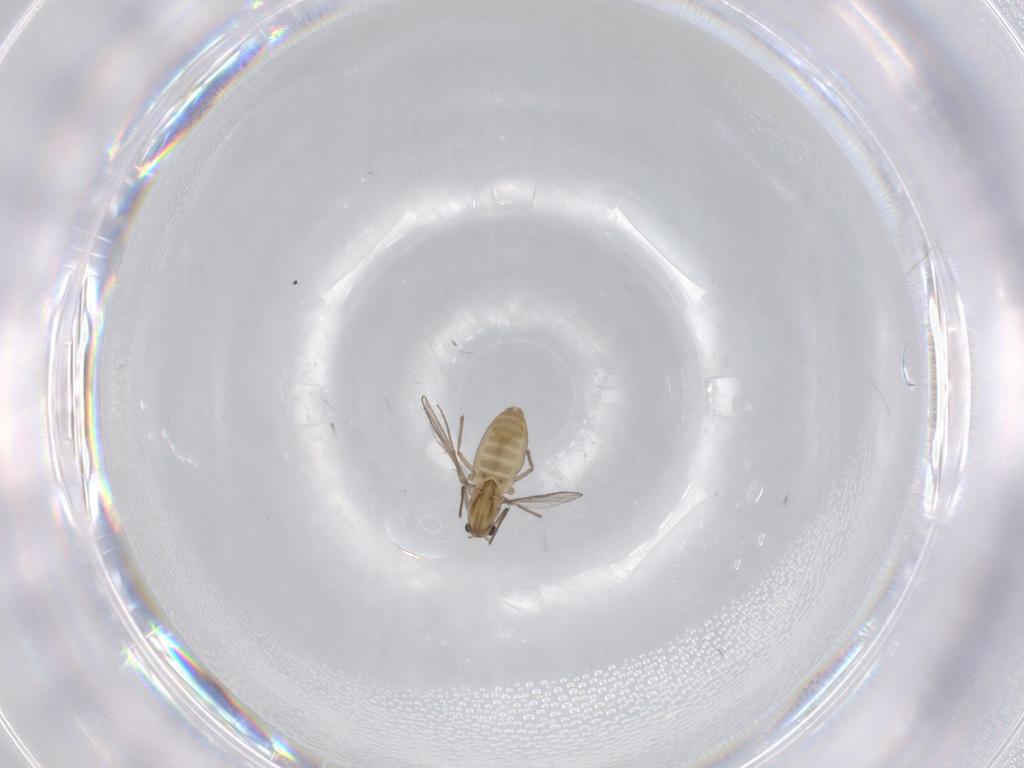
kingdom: Animalia
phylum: Arthropoda
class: Insecta
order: Diptera
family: Chironomidae
